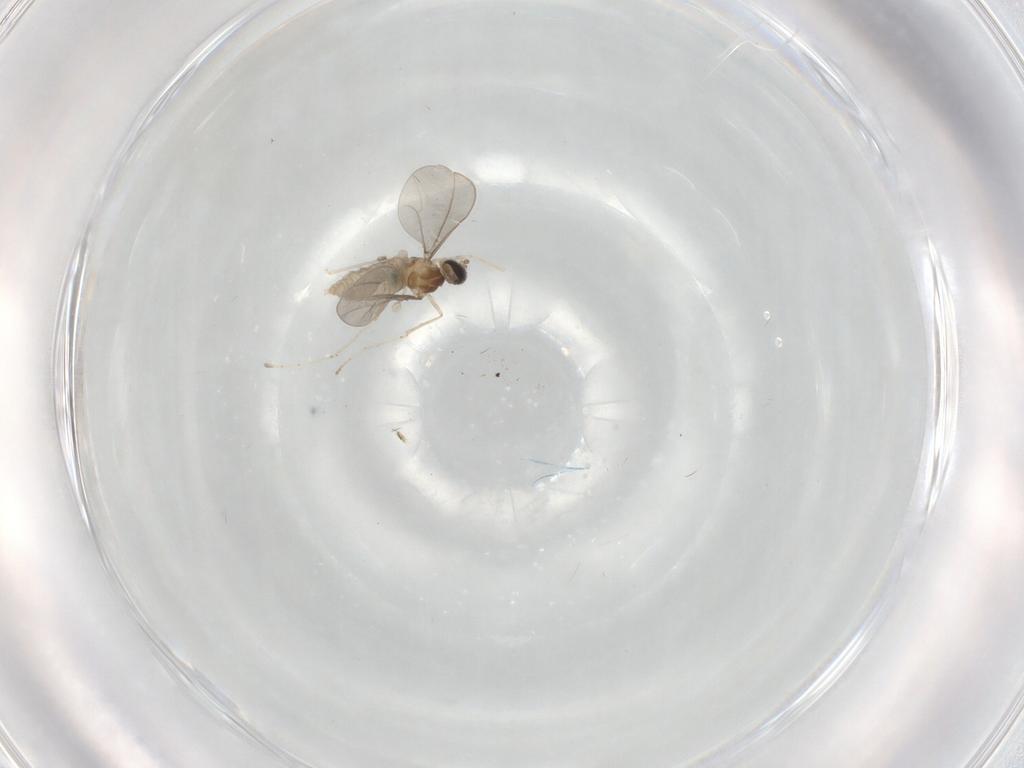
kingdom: Animalia
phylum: Arthropoda
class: Insecta
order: Diptera
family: Cecidomyiidae
